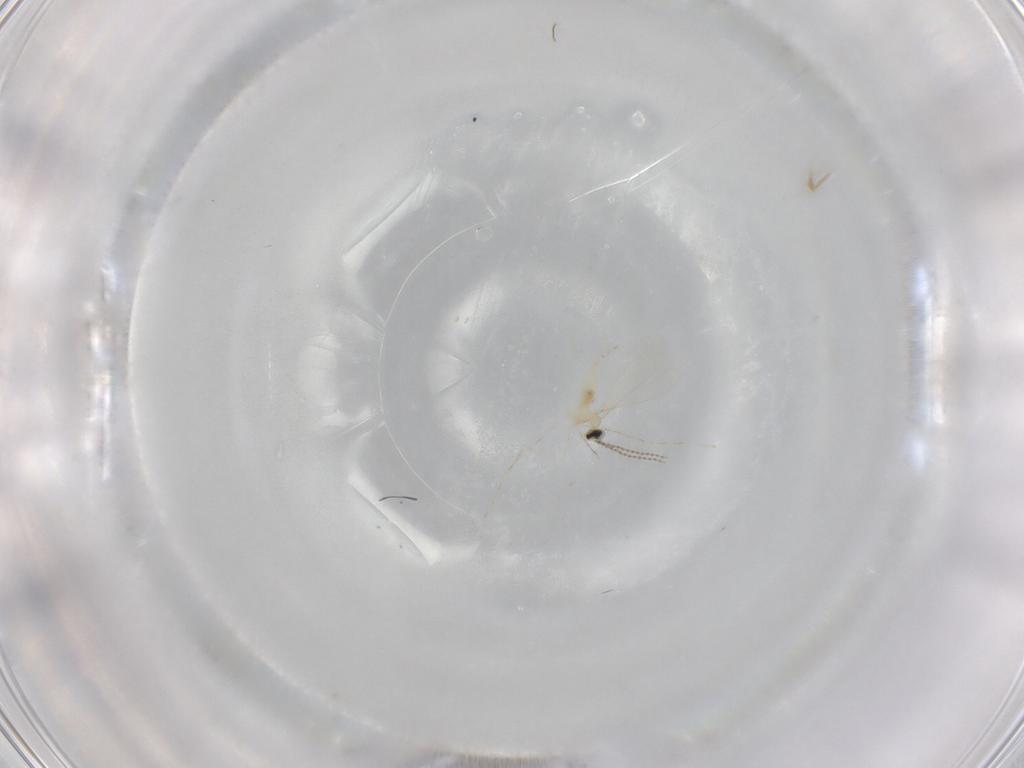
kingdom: Animalia
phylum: Arthropoda
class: Insecta
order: Diptera
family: Cecidomyiidae
